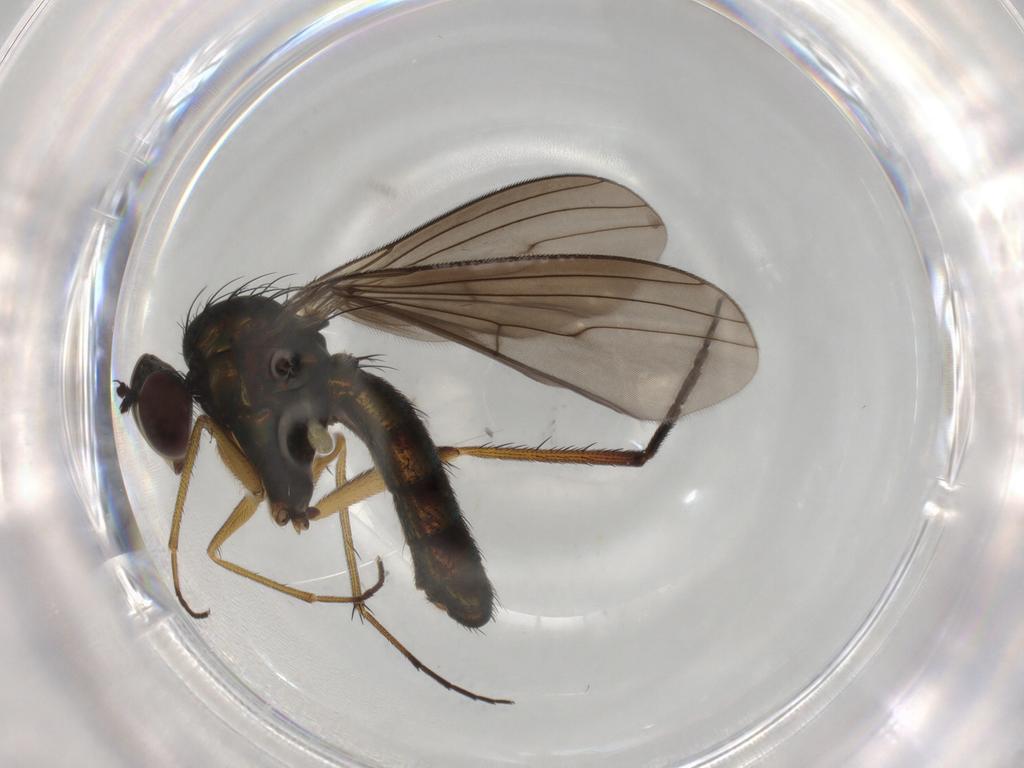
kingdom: Animalia
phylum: Arthropoda
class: Insecta
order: Diptera
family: Dolichopodidae
